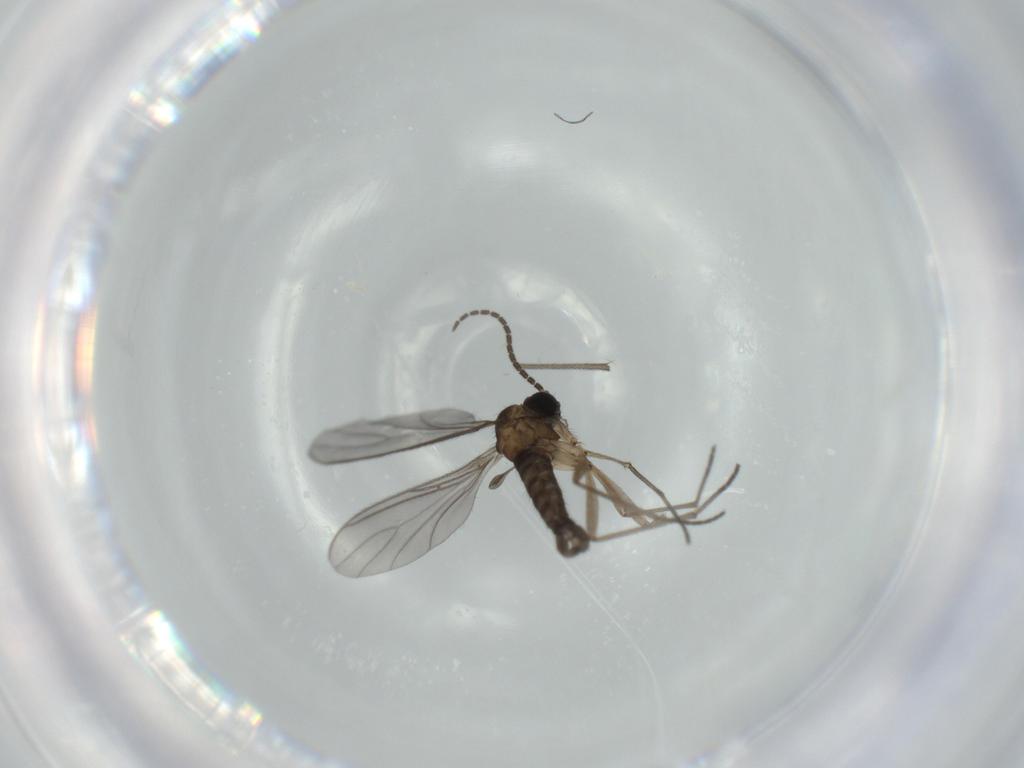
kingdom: Animalia
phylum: Arthropoda
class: Insecta
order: Diptera
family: Sciaridae
